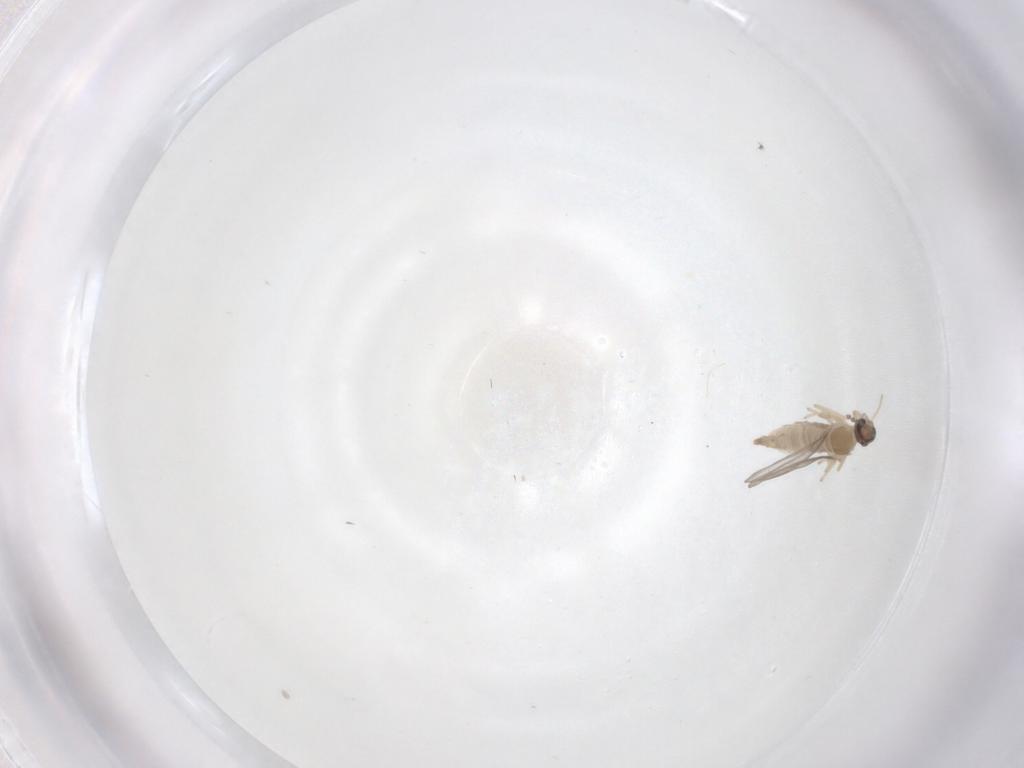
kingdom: Animalia
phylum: Arthropoda
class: Insecta
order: Diptera
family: Cecidomyiidae
